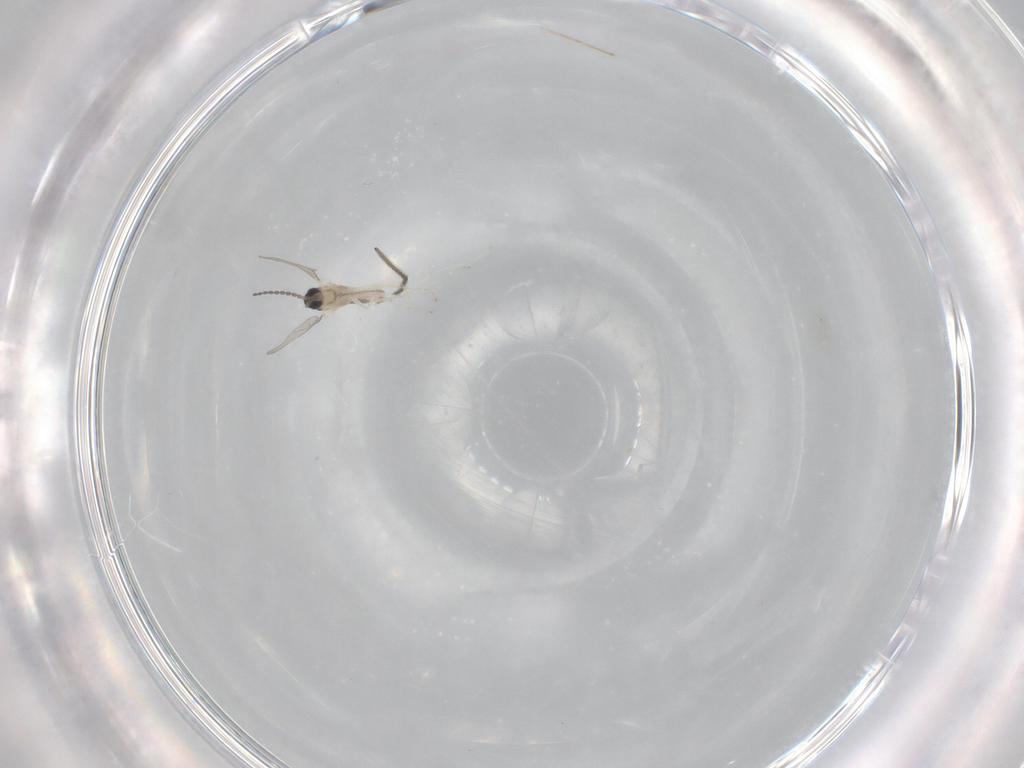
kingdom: Animalia
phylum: Arthropoda
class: Insecta
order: Diptera
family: Cecidomyiidae
